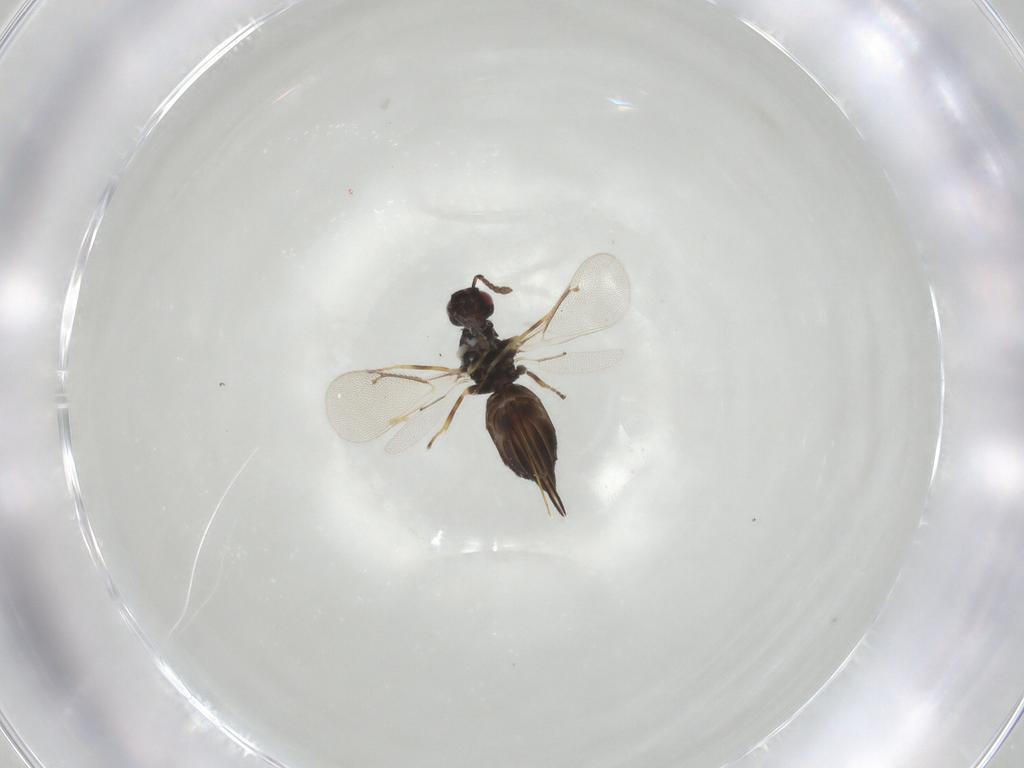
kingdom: Animalia
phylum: Arthropoda
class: Insecta
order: Hymenoptera
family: Eulophidae
